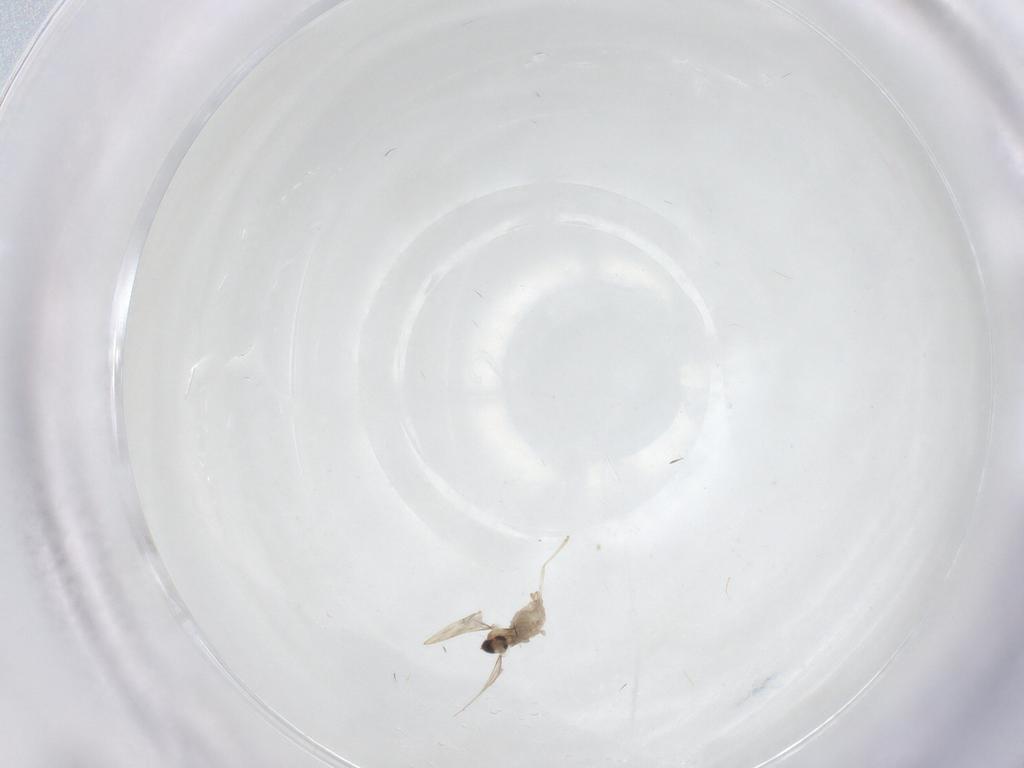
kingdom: Animalia
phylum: Arthropoda
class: Insecta
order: Diptera
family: Cecidomyiidae
